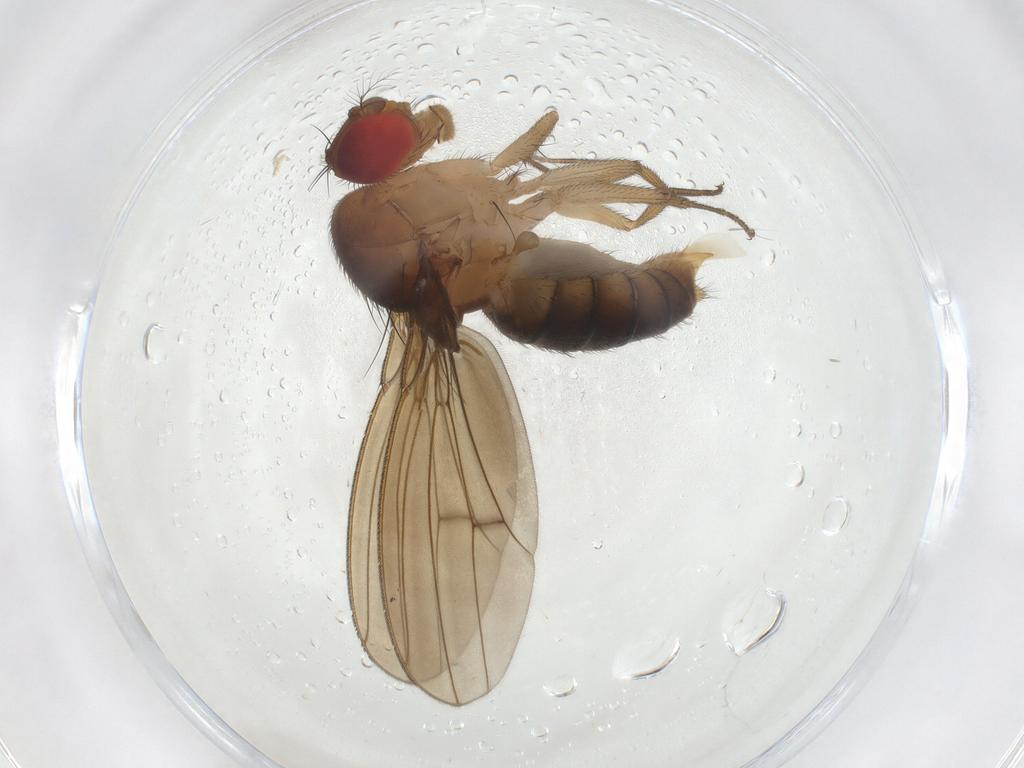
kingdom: Animalia
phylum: Arthropoda
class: Insecta
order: Diptera
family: Drosophilidae
